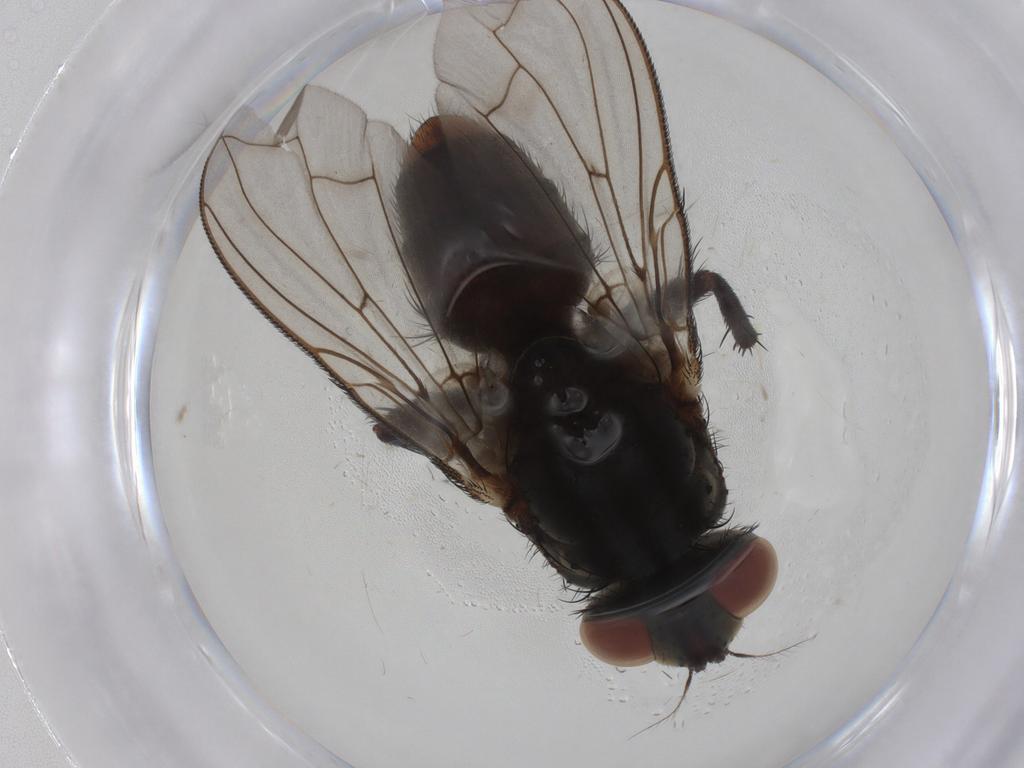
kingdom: Animalia
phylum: Arthropoda
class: Insecta
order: Diptera
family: Sarcophagidae
